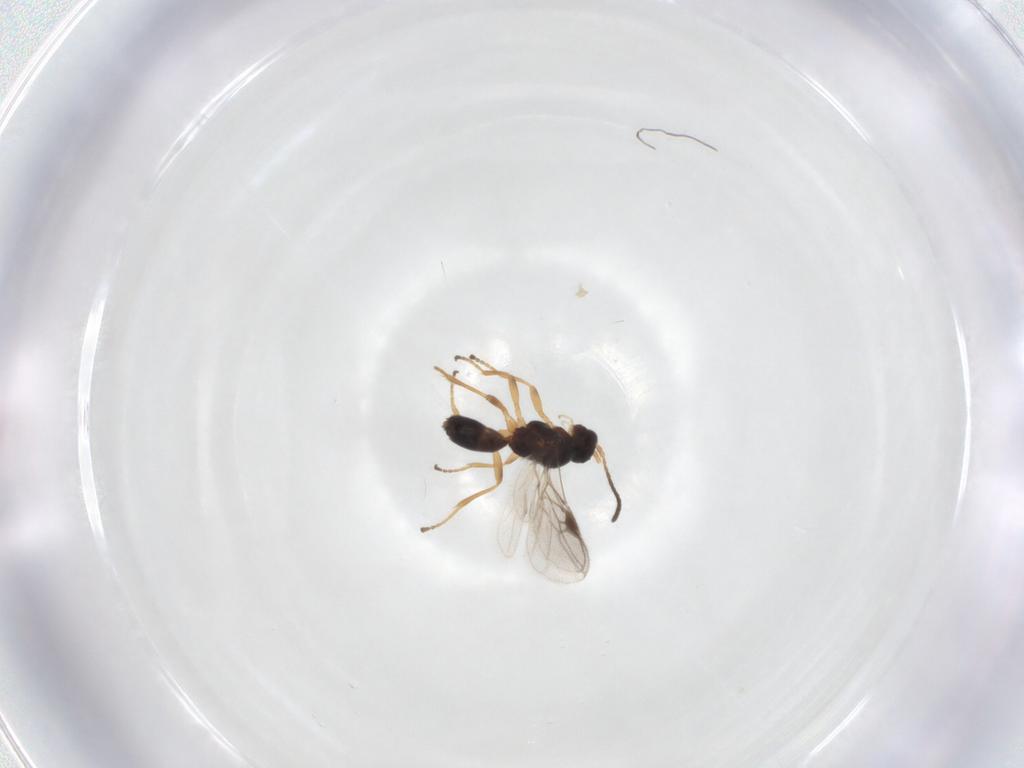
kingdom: Animalia
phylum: Arthropoda
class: Insecta
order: Hymenoptera
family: Braconidae
